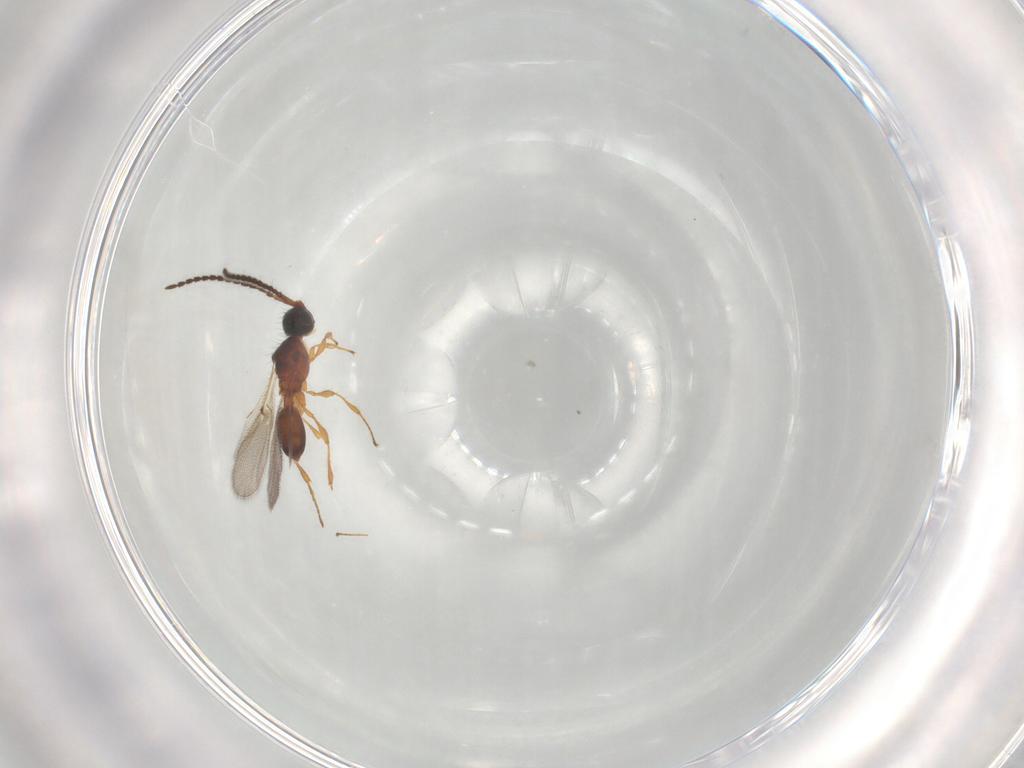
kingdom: Animalia
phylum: Arthropoda
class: Insecta
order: Hymenoptera
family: Diapriidae
